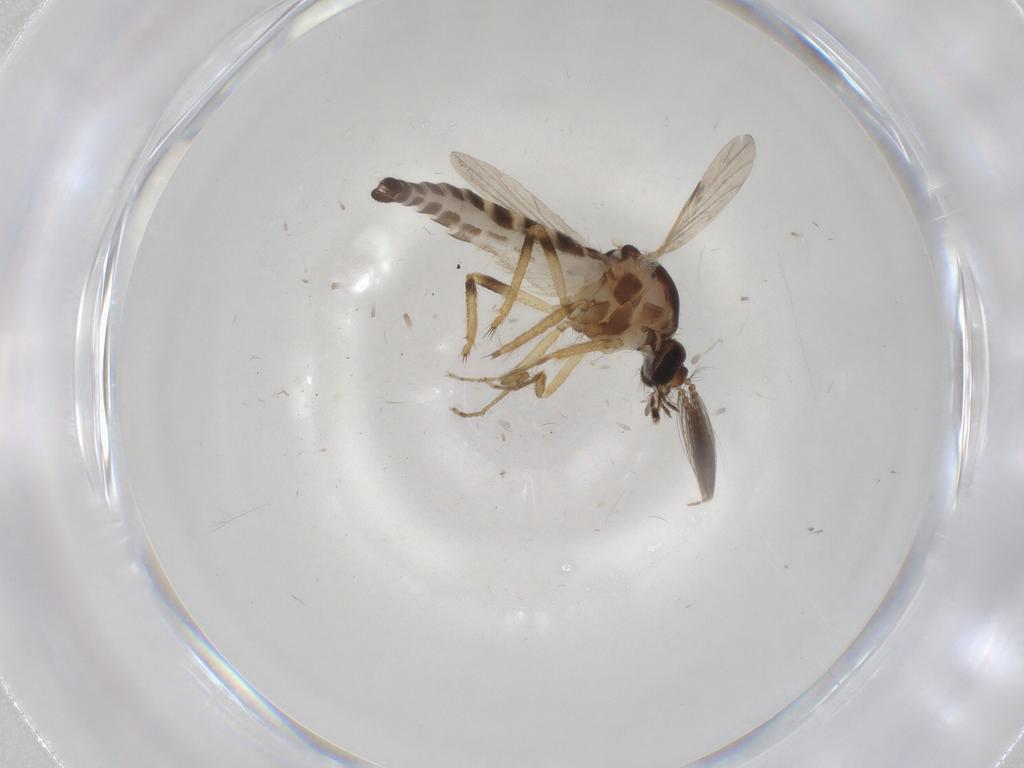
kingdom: Animalia
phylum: Arthropoda
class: Insecta
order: Diptera
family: Ceratopogonidae
